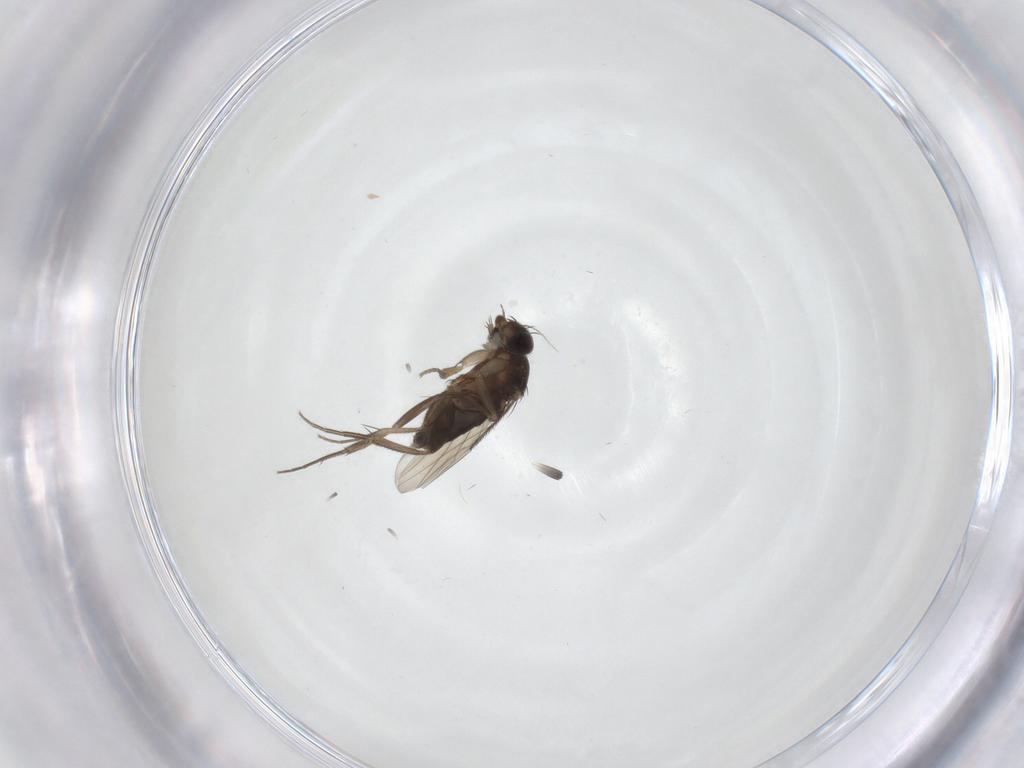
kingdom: Animalia
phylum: Arthropoda
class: Insecta
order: Diptera
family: Phoridae
